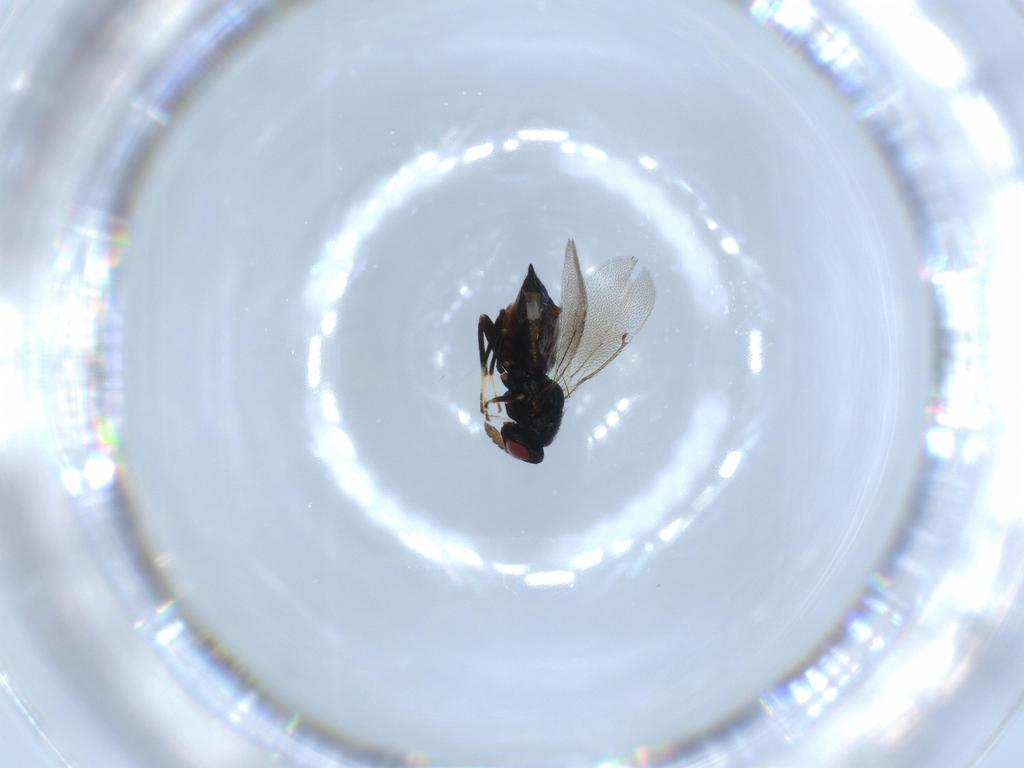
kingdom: Animalia
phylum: Arthropoda
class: Insecta
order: Hymenoptera
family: Eulophidae
